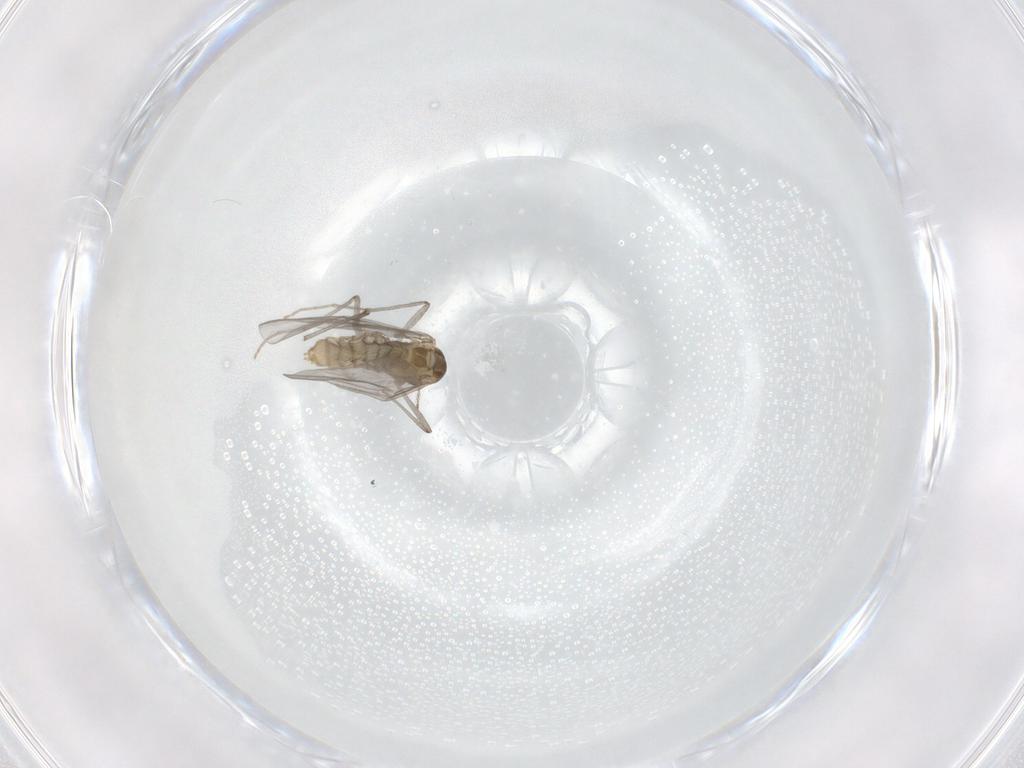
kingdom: Animalia
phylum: Arthropoda
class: Insecta
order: Diptera
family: Chironomidae
